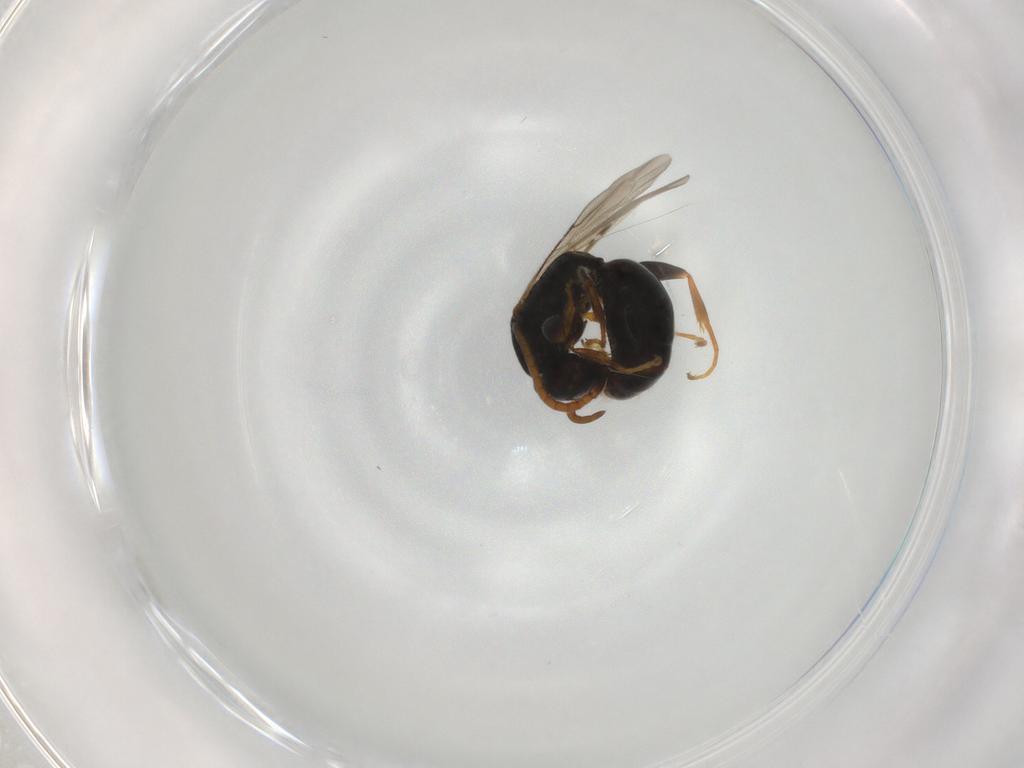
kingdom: Animalia
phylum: Arthropoda
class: Insecta
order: Hymenoptera
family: Bethylidae
